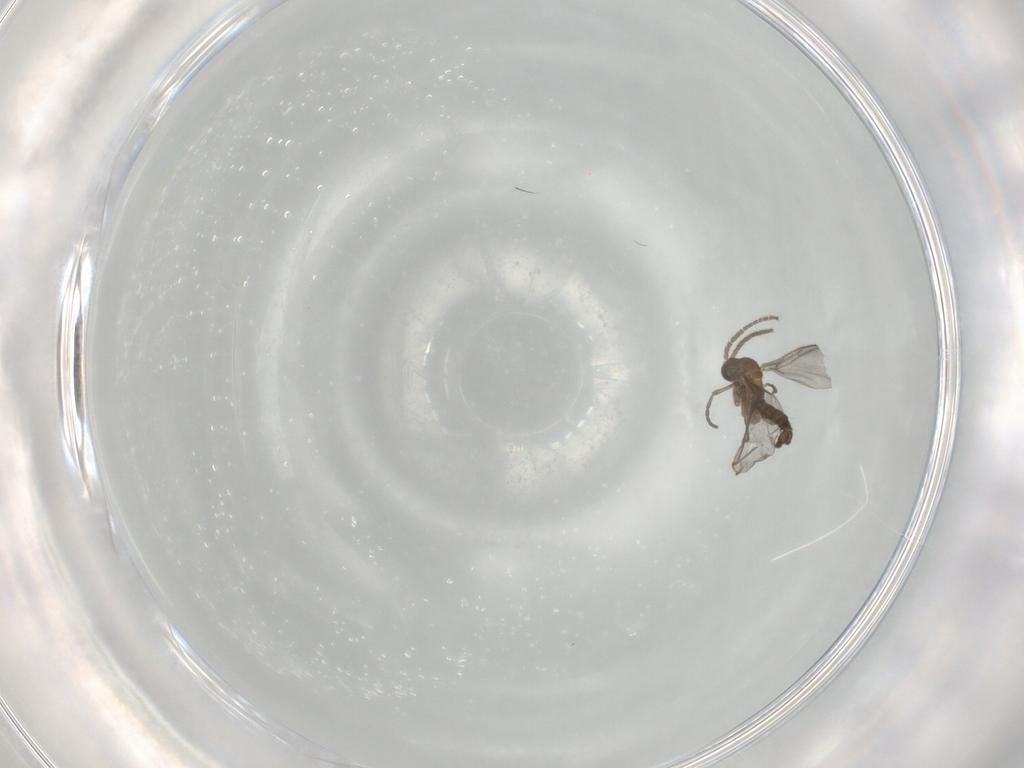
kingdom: Animalia
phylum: Arthropoda
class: Insecta
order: Diptera
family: Sciaridae
